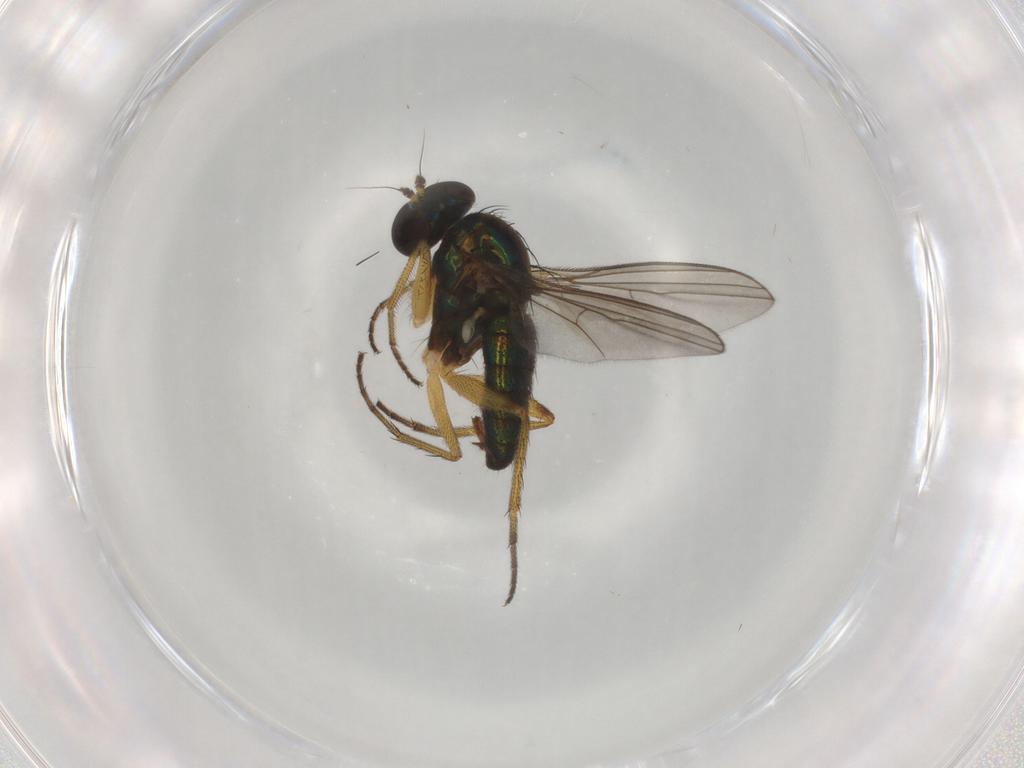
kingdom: Animalia
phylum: Arthropoda
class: Insecta
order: Diptera
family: Dolichopodidae
